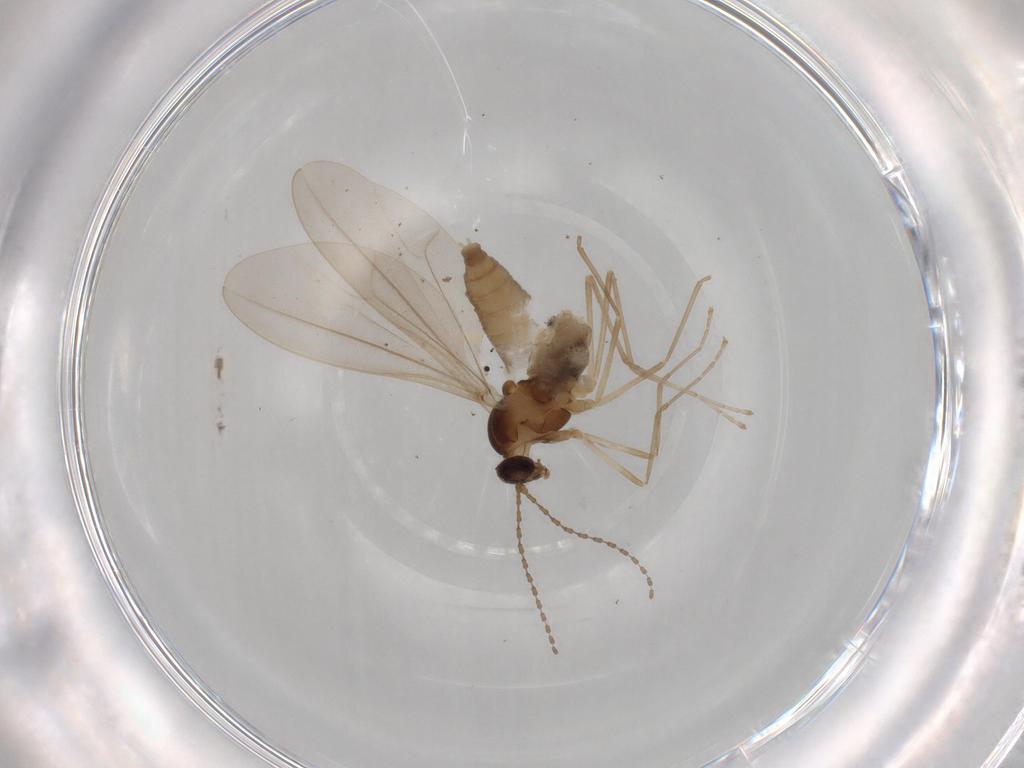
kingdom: Animalia
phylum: Arthropoda
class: Insecta
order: Diptera
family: Cecidomyiidae
